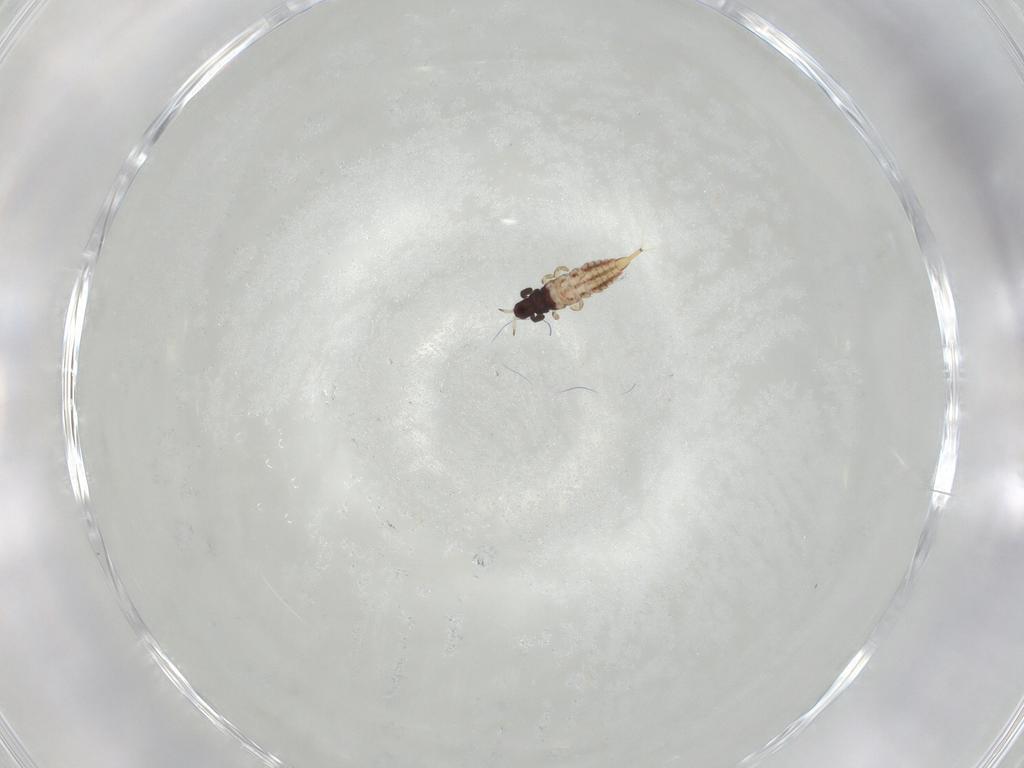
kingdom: Animalia
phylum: Arthropoda
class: Insecta
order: Thysanoptera
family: Phlaeothripidae
